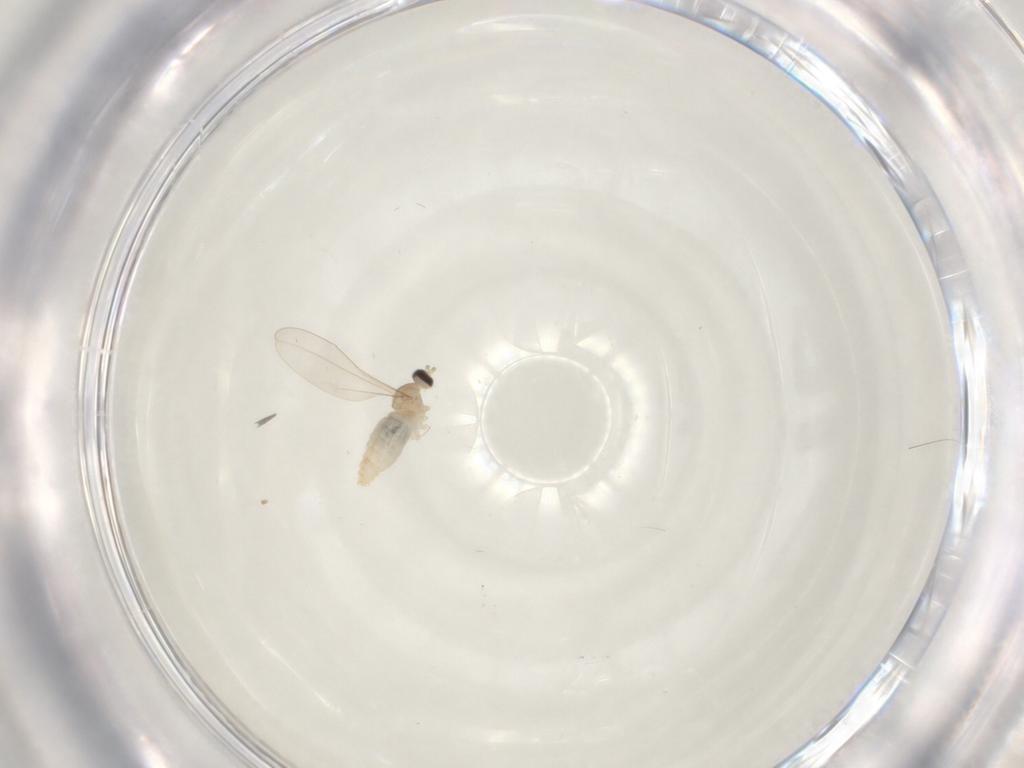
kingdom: Animalia
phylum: Arthropoda
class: Insecta
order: Diptera
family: Cecidomyiidae
